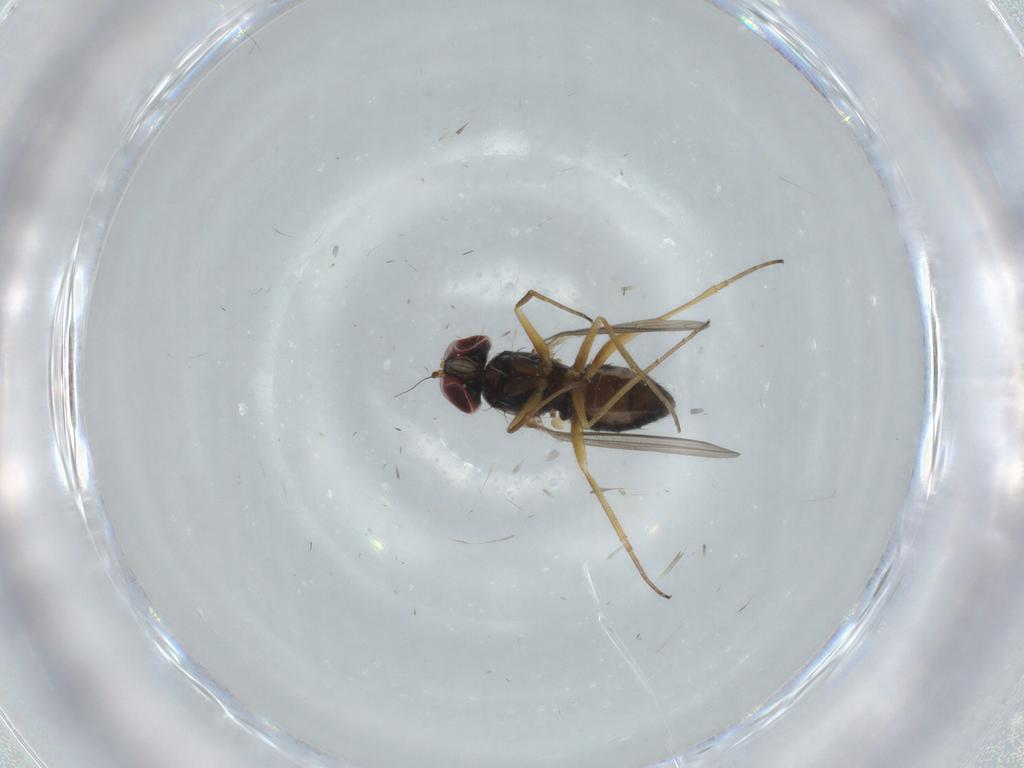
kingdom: Animalia
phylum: Arthropoda
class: Insecta
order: Diptera
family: Dolichopodidae
